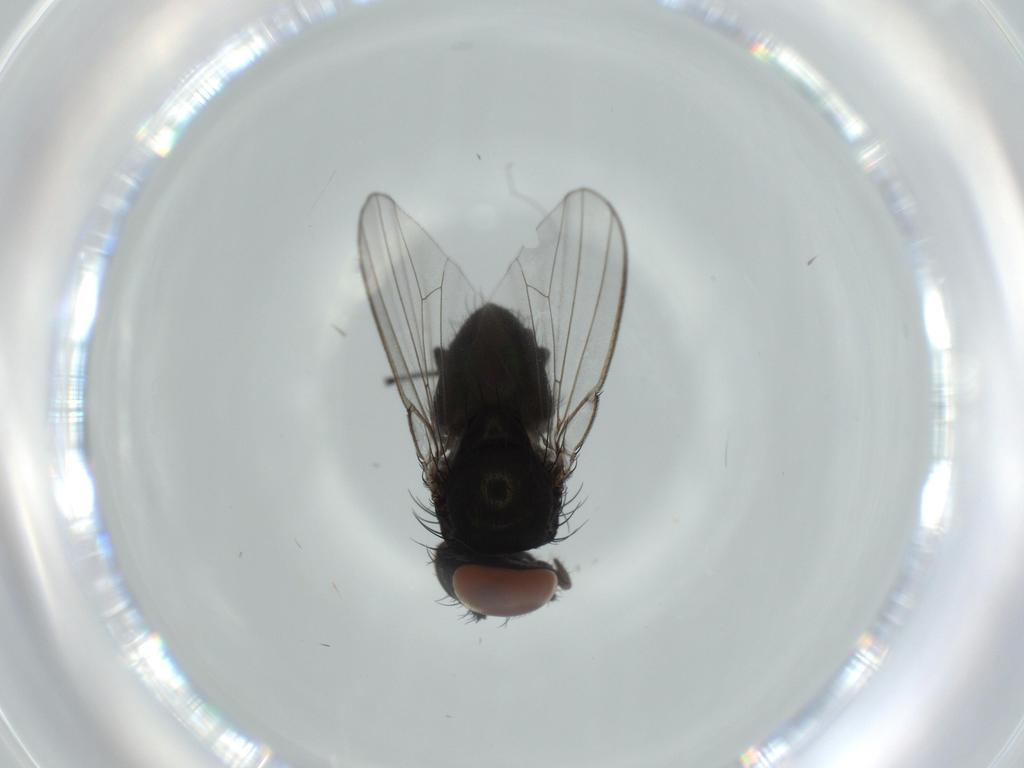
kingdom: Animalia
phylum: Arthropoda
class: Insecta
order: Diptera
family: Milichiidae
